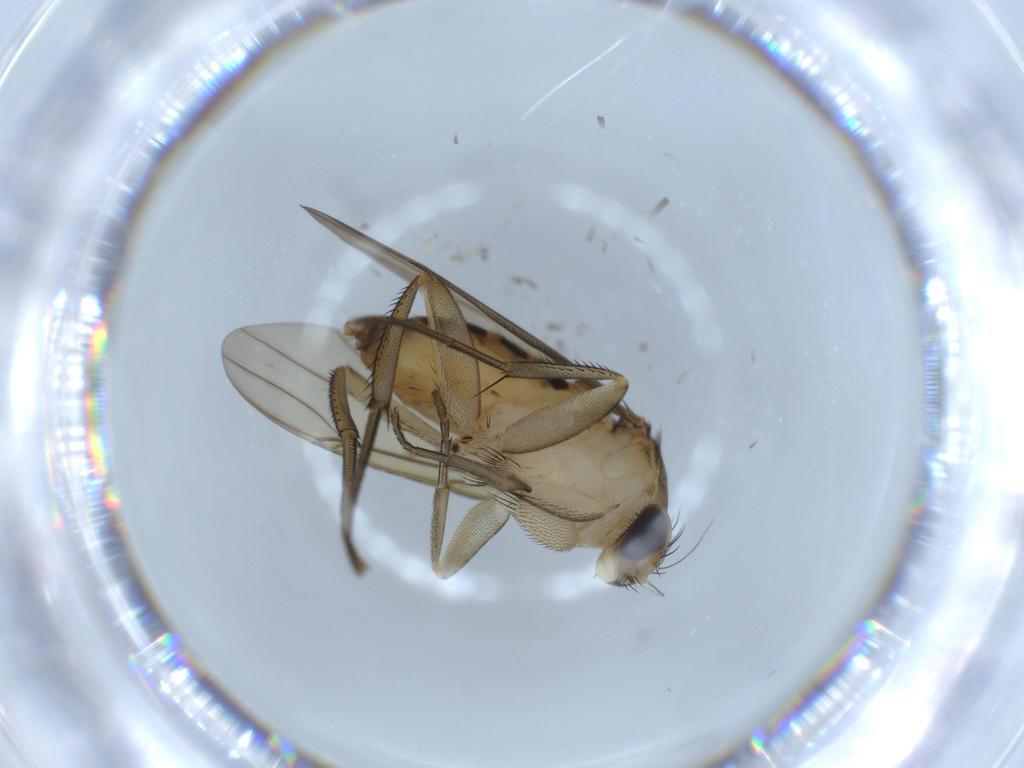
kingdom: Animalia
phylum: Arthropoda
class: Insecta
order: Diptera
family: Phoridae
